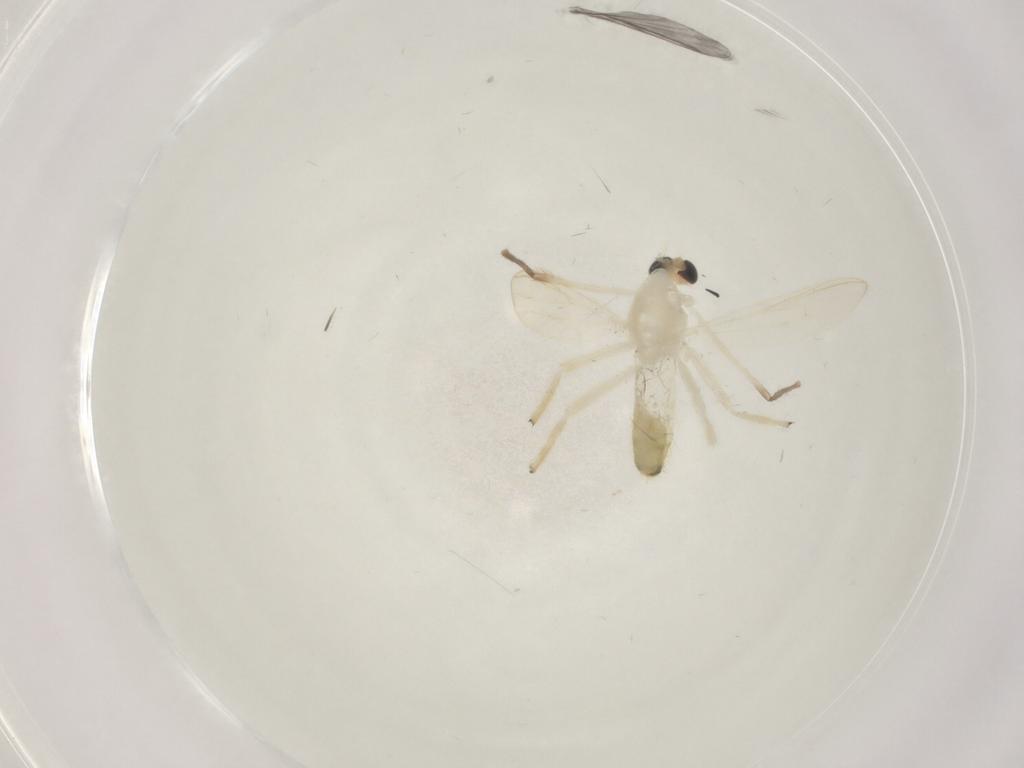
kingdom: Animalia
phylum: Arthropoda
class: Insecta
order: Diptera
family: Chironomidae
